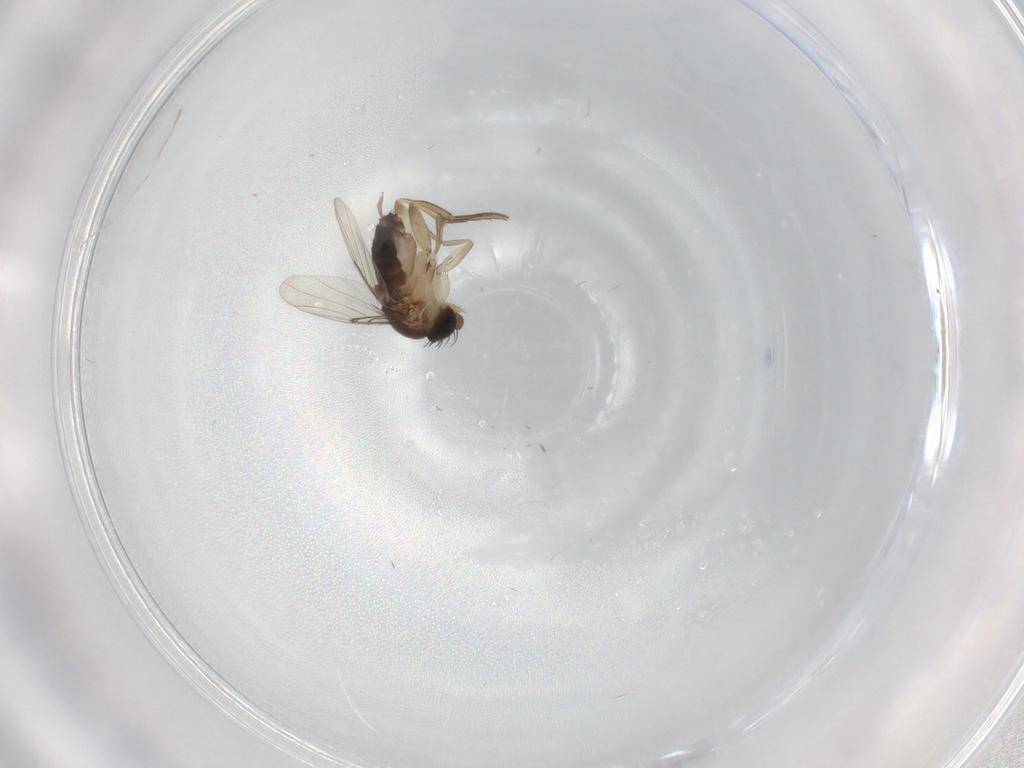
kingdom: Animalia
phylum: Arthropoda
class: Insecta
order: Diptera
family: Cecidomyiidae
